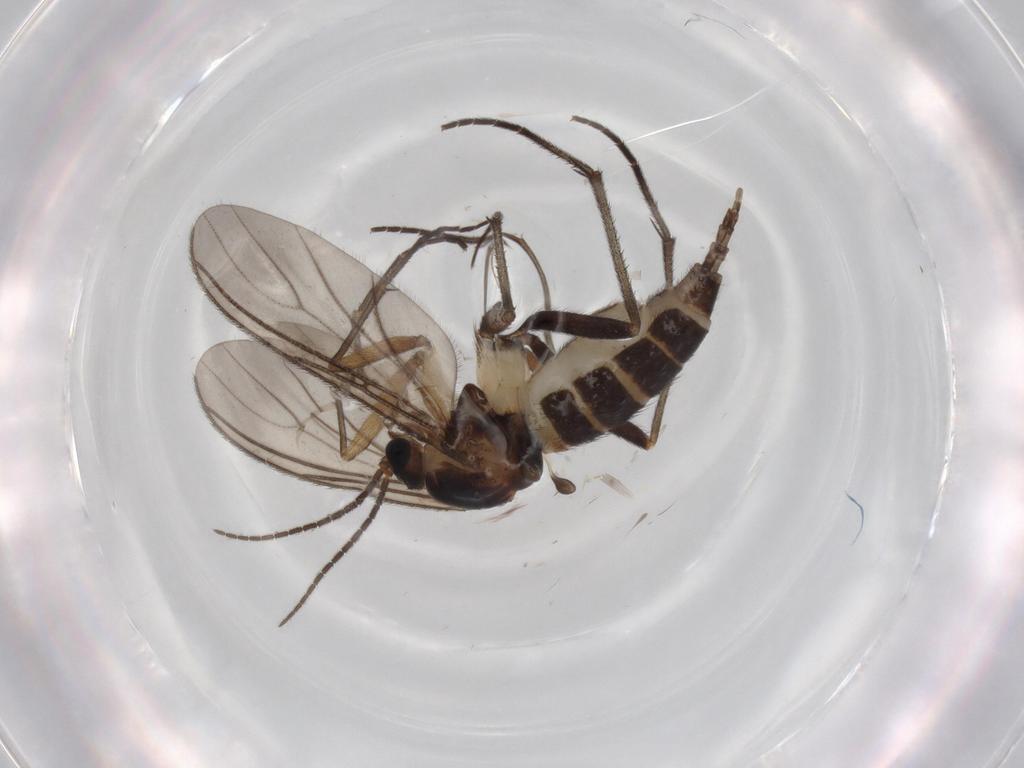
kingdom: Animalia
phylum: Arthropoda
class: Insecta
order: Diptera
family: Sciaridae
